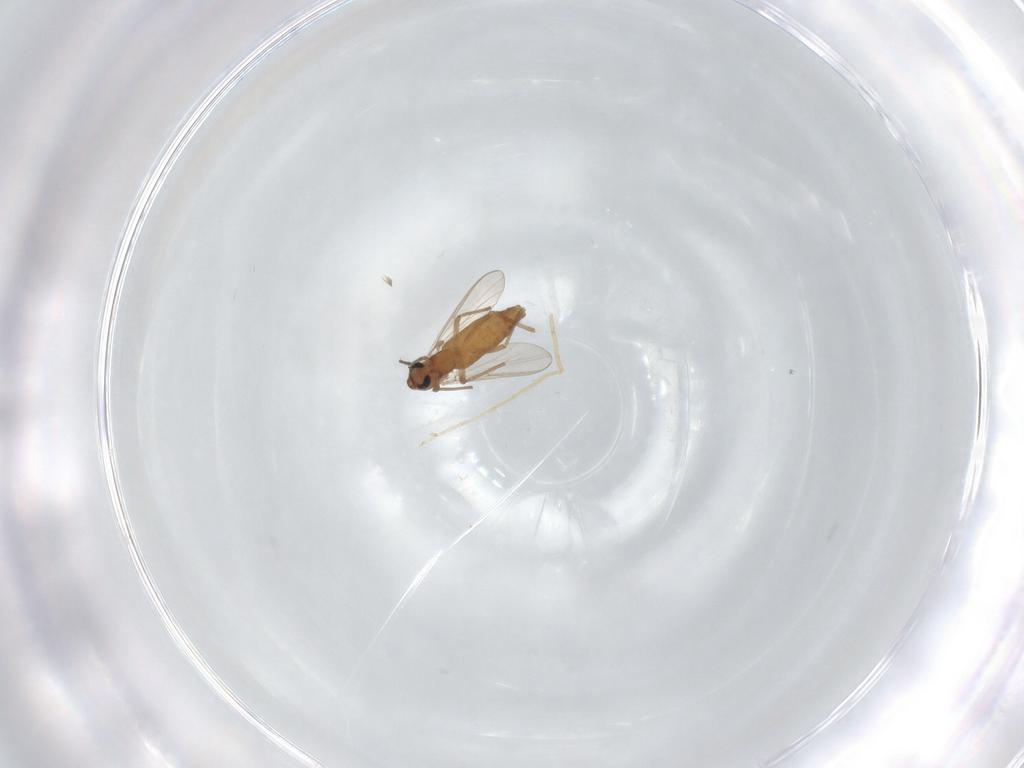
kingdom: Animalia
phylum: Arthropoda
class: Insecta
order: Diptera
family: Chironomidae
